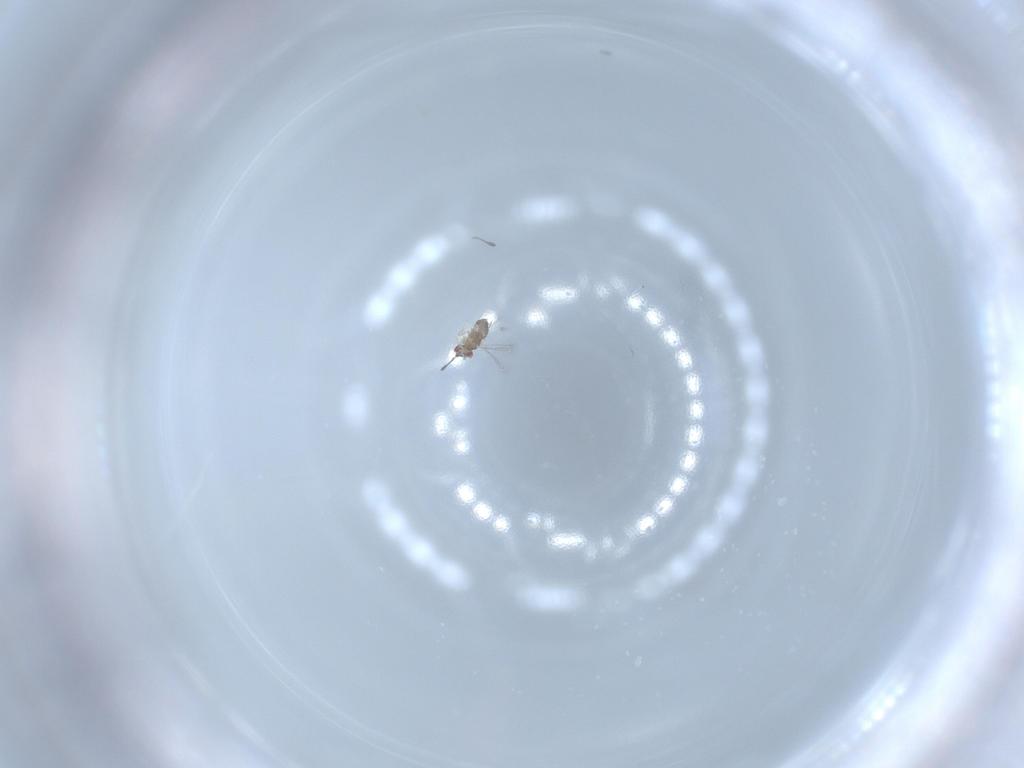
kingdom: Animalia
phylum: Arthropoda
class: Insecta
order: Hymenoptera
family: Mymaridae
